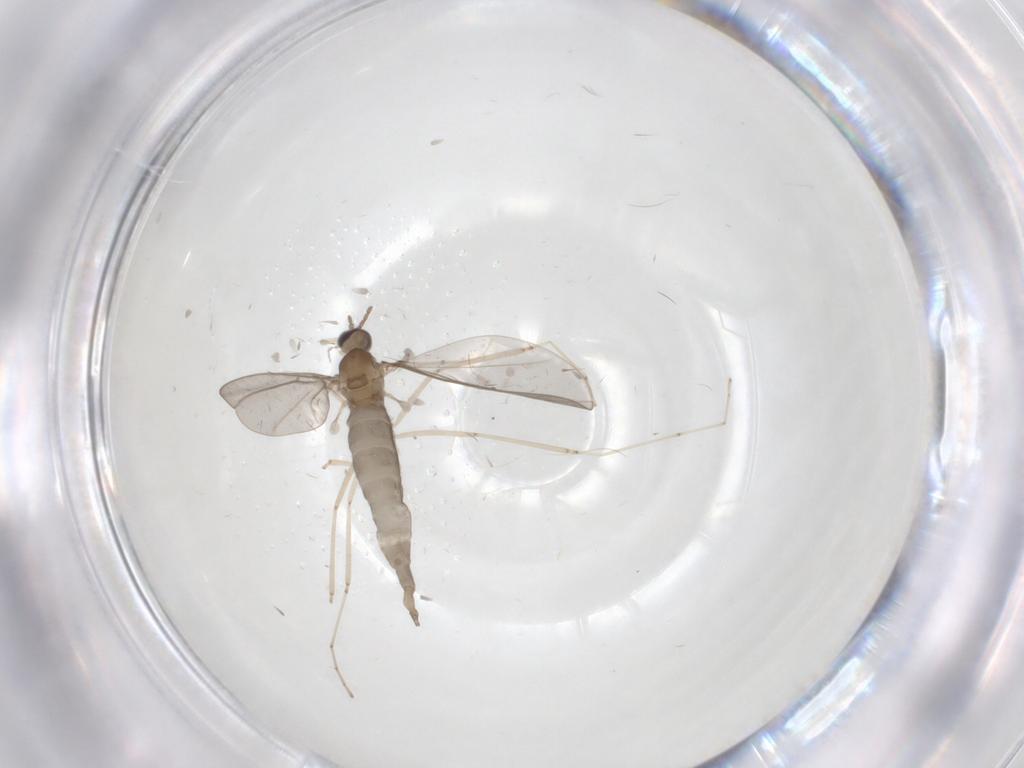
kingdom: Animalia
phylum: Arthropoda
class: Insecta
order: Diptera
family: Cecidomyiidae
